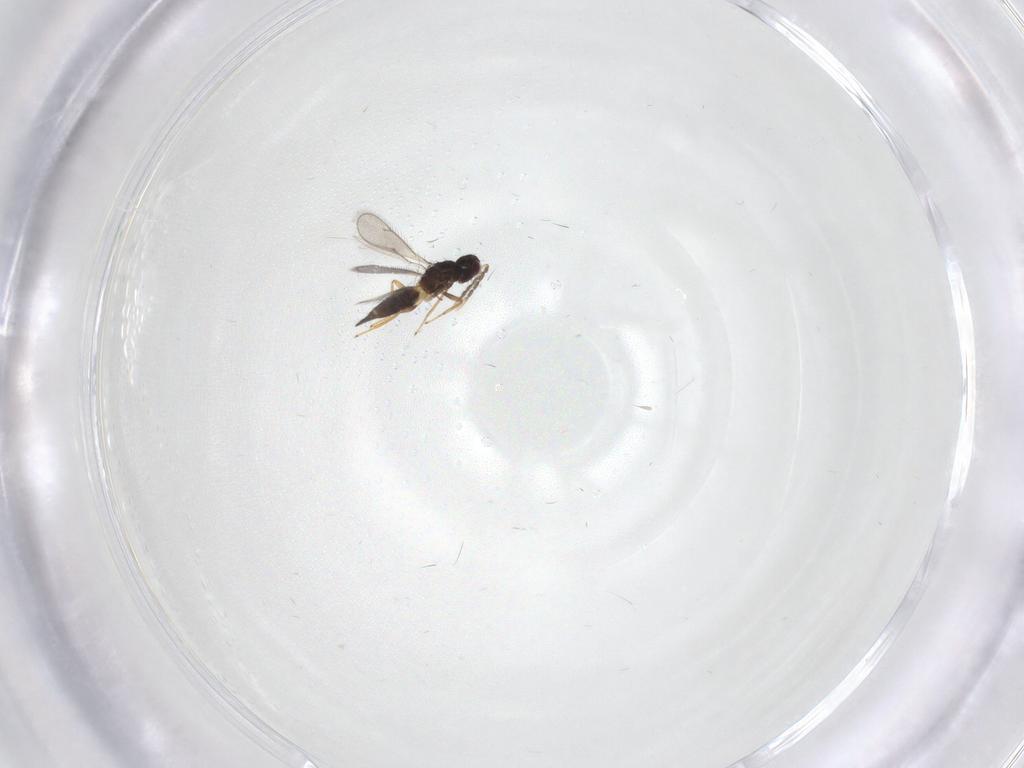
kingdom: Animalia
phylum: Arthropoda
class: Insecta
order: Hymenoptera
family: Eulophidae
